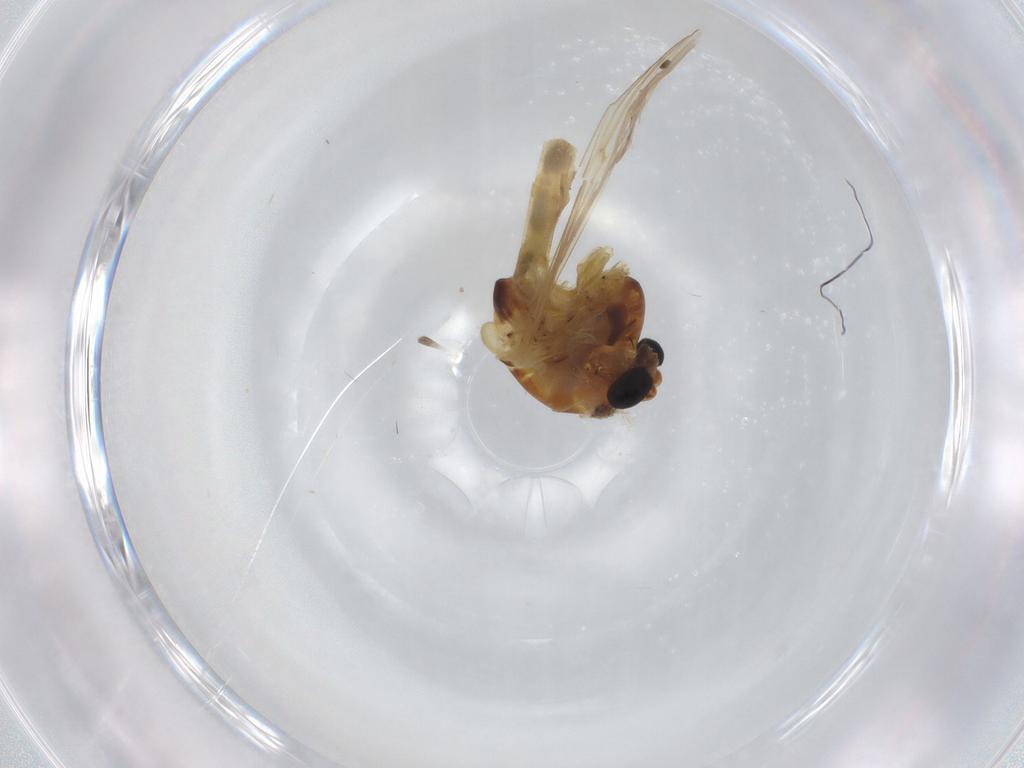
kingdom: Animalia
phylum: Arthropoda
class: Insecta
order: Diptera
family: Chironomidae
